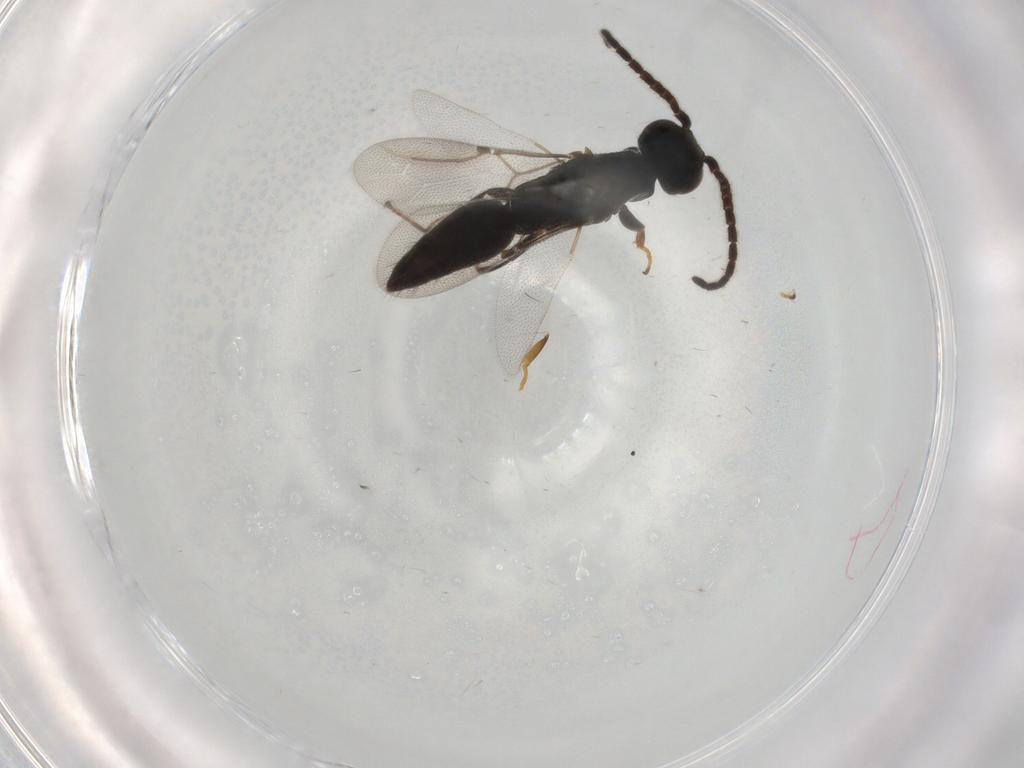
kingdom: Animalia
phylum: Arthropoda
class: Insecta
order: Hymenoptera
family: Bethylidae
